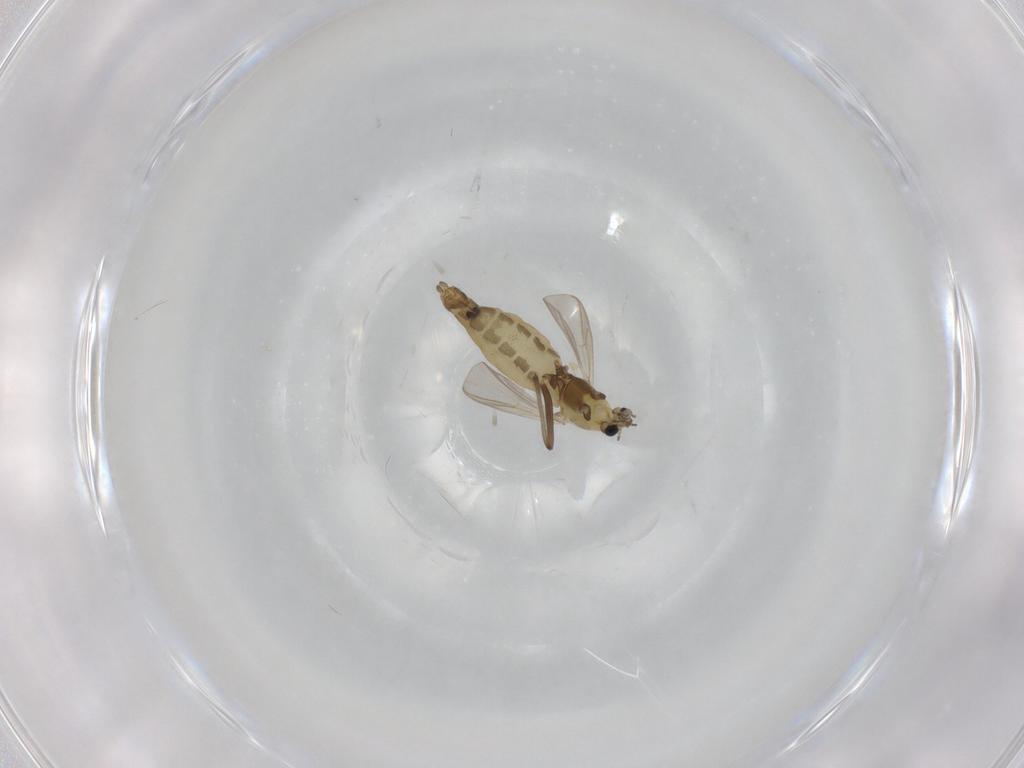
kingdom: Animalia
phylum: Arthropoda
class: Insecta
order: Diptera
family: Chironomidae
